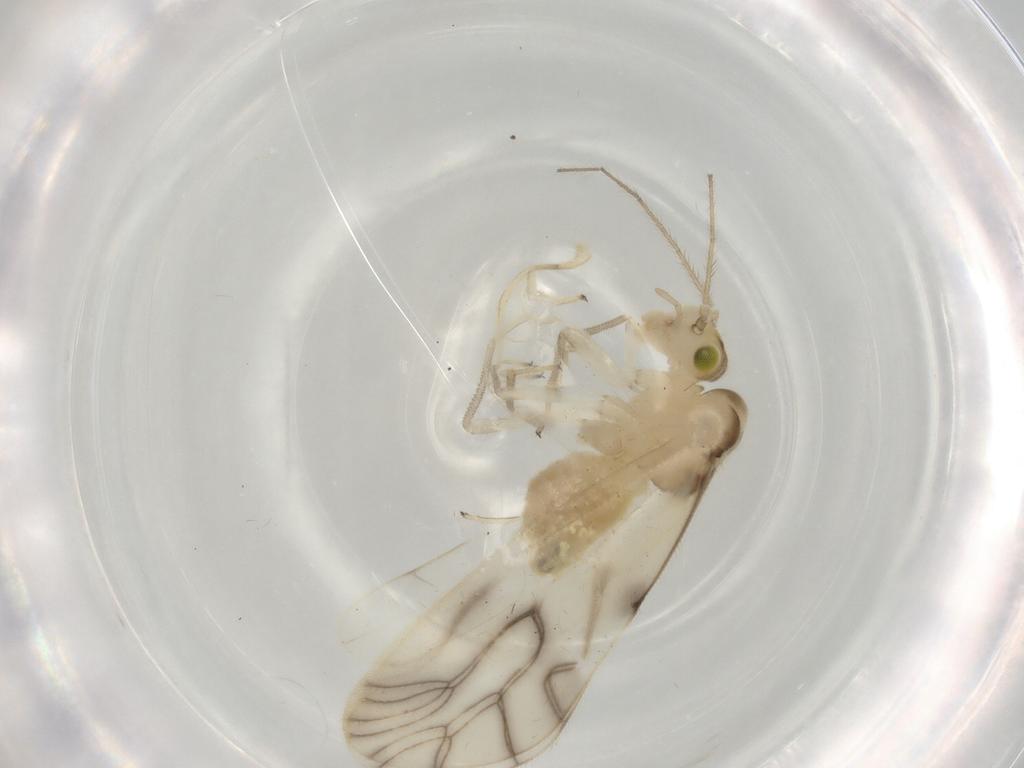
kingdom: Animalia
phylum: Arthropoda
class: Insecta
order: Psocodea
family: Caeciliusidae
